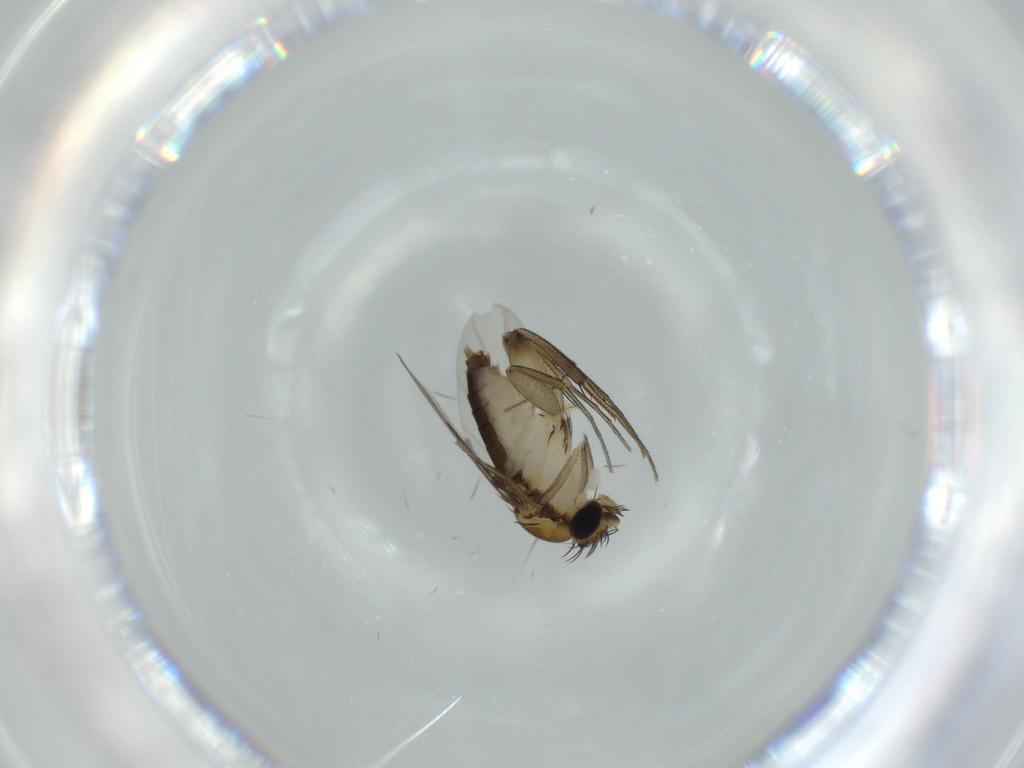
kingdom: Animalia
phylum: Arthropoda
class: Insecta
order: Diptera
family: Phoridae
